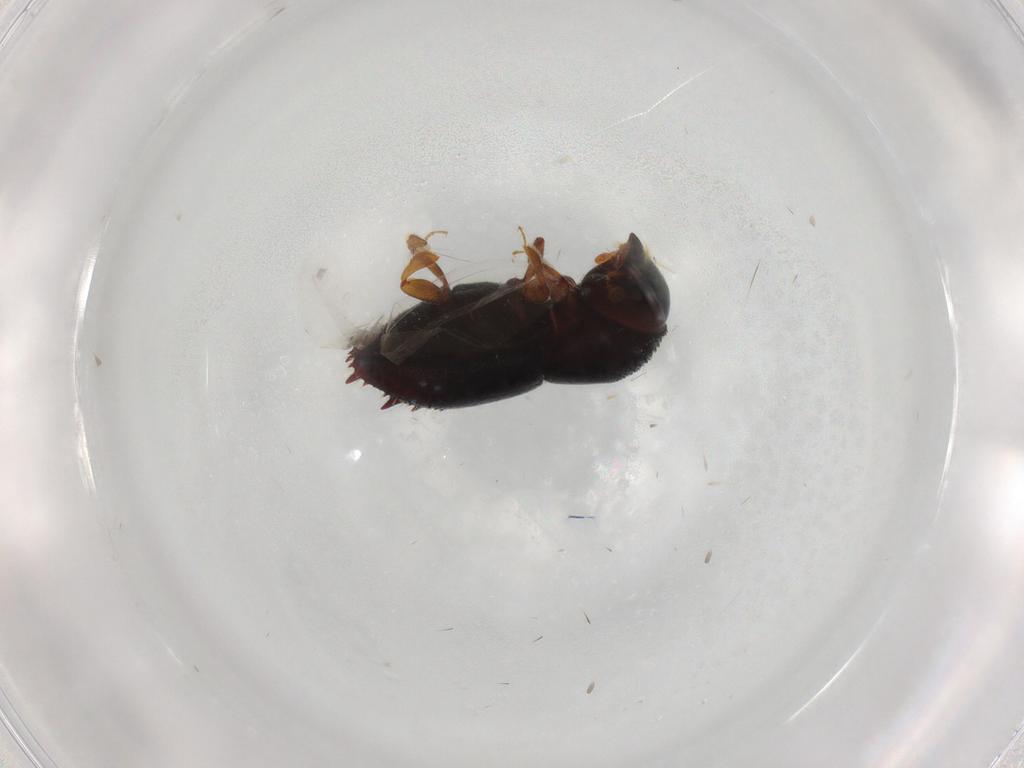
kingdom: Animalia
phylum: Arthropoda
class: Insecta
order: Coleoptera
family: Curculionidae
